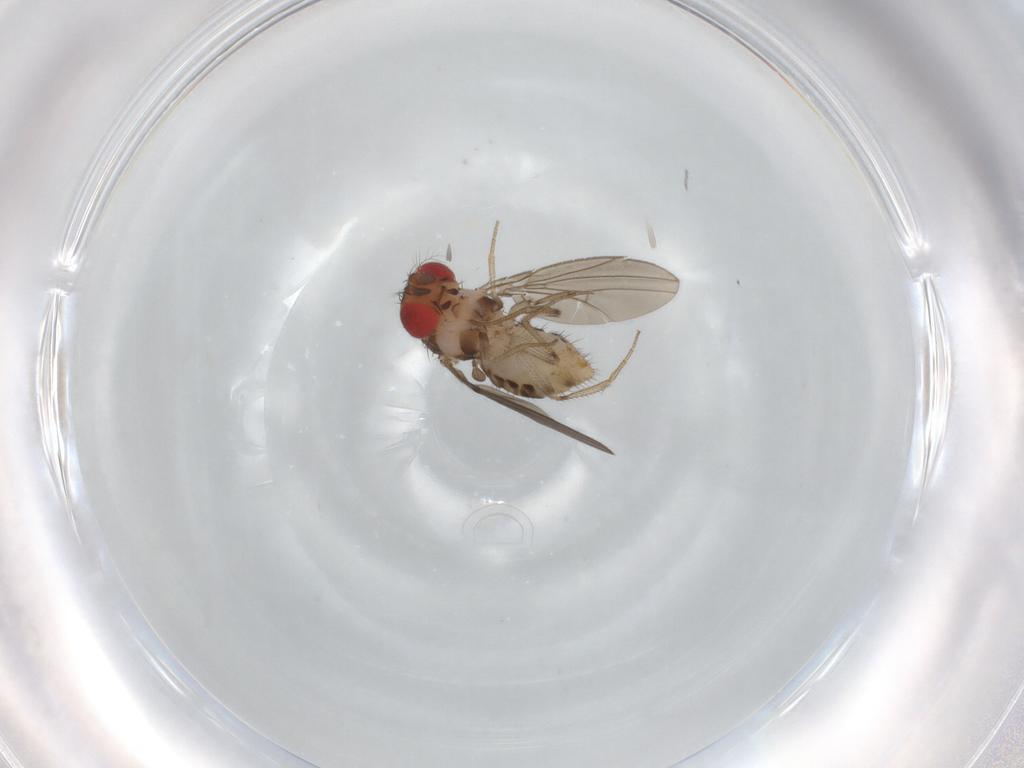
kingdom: Animalia
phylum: Arthropoda
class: Insecta
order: Diptera
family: Drosophilidae
